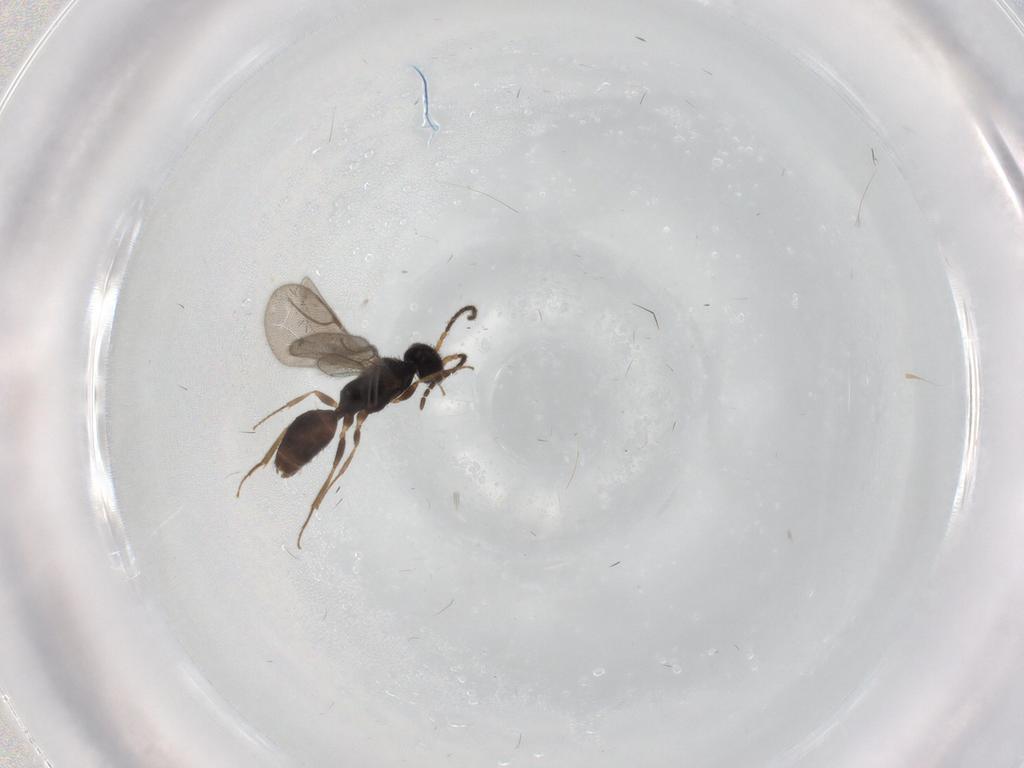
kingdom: Animalia
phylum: Arthropoda
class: Insecta
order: Hymenoptera
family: Bethylidae
